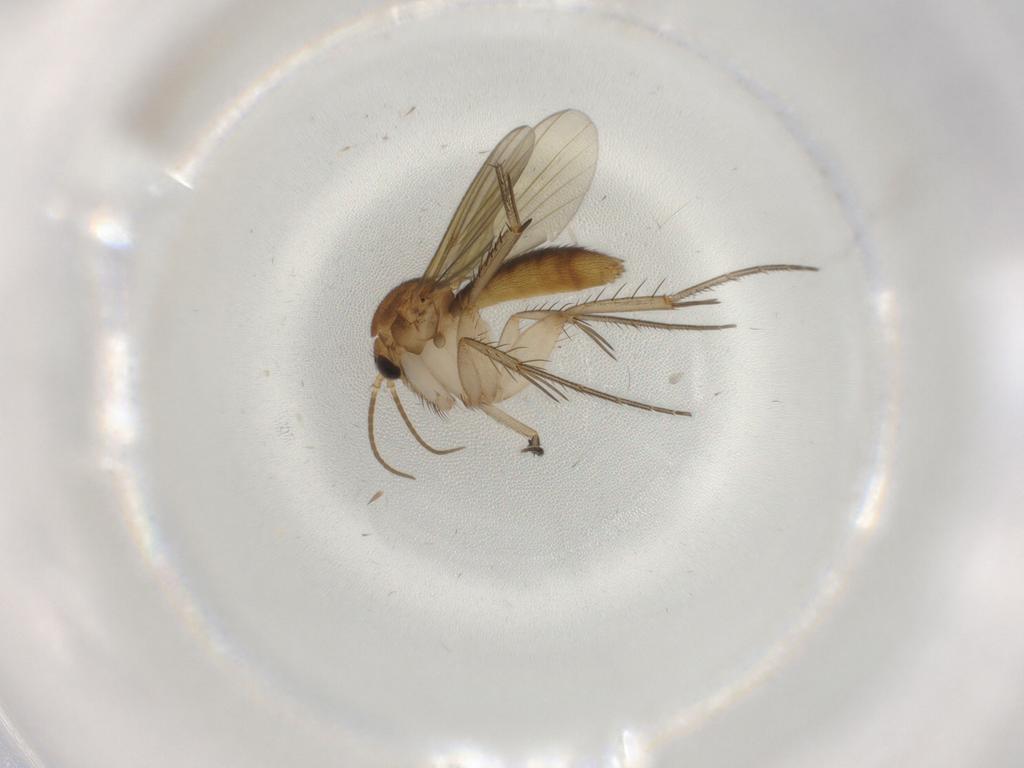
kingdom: Animalia
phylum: Arthropoda
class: Insecta
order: Diptera
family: Mycetophilidae
